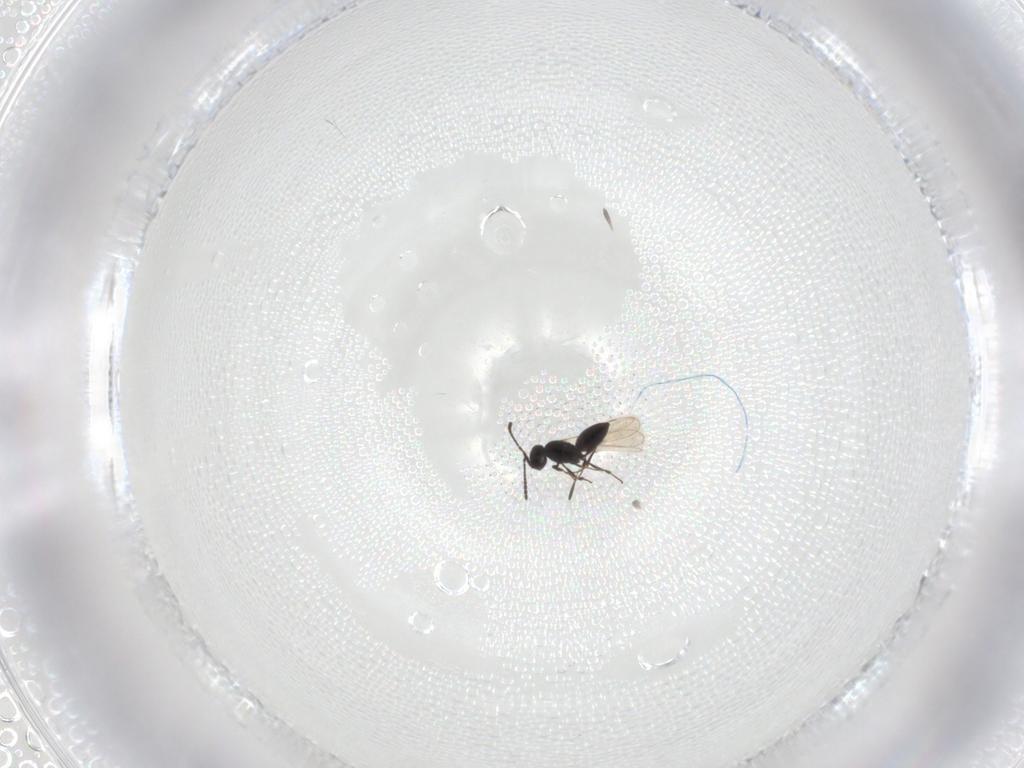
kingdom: Animalia
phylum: Arthropoda
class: Insecta
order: Hymenoptera
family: Scelionidae
